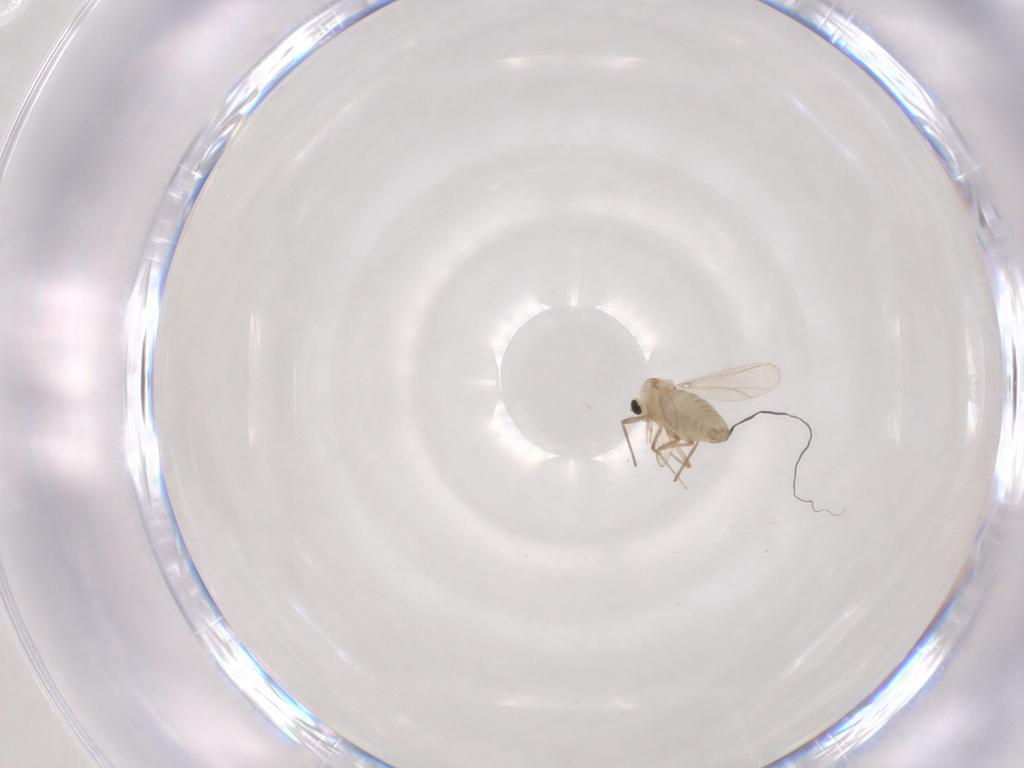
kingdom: Animalia
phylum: Arthropoda
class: Insecta
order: Diptera
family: Chironomidae
